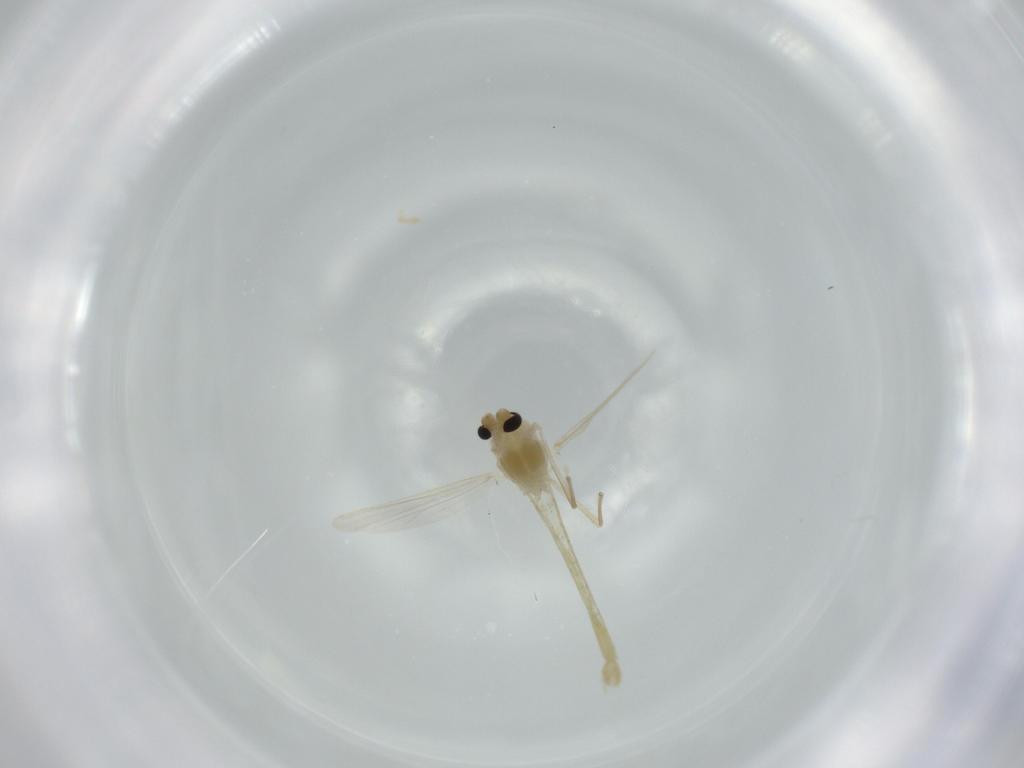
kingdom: Animalia
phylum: Arthropoda
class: Insecta
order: Diptera
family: Chironomidae
